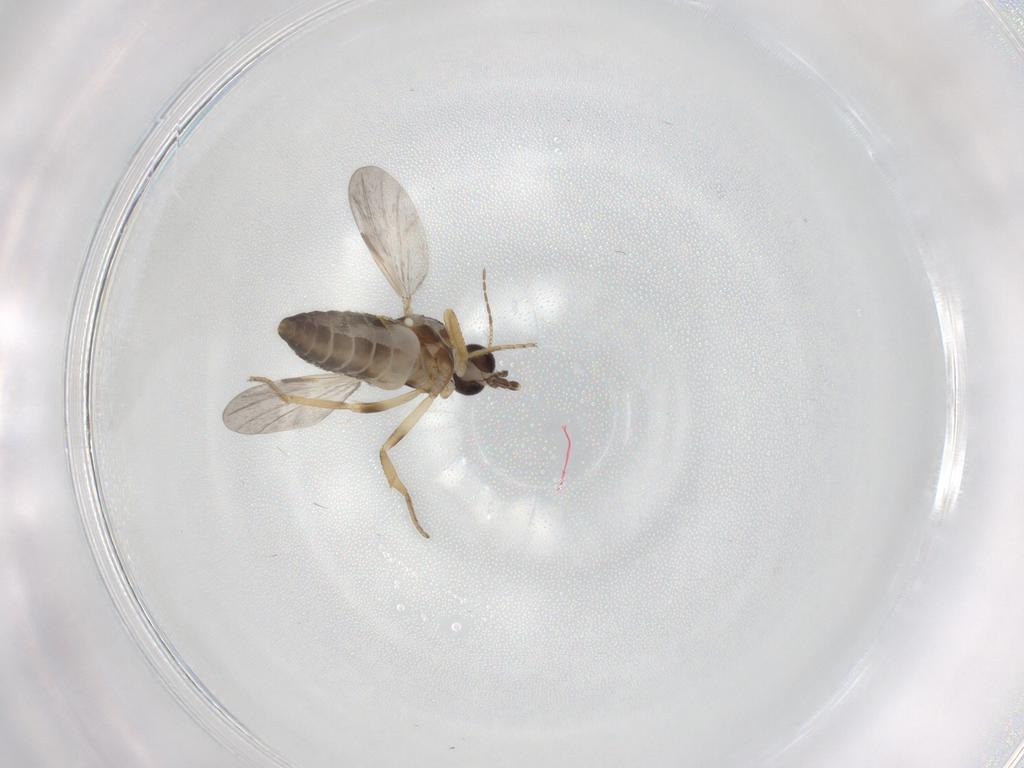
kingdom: Animalia
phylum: Arthropoda
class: Insecta
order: Diptera
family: Ceratopogonidae
